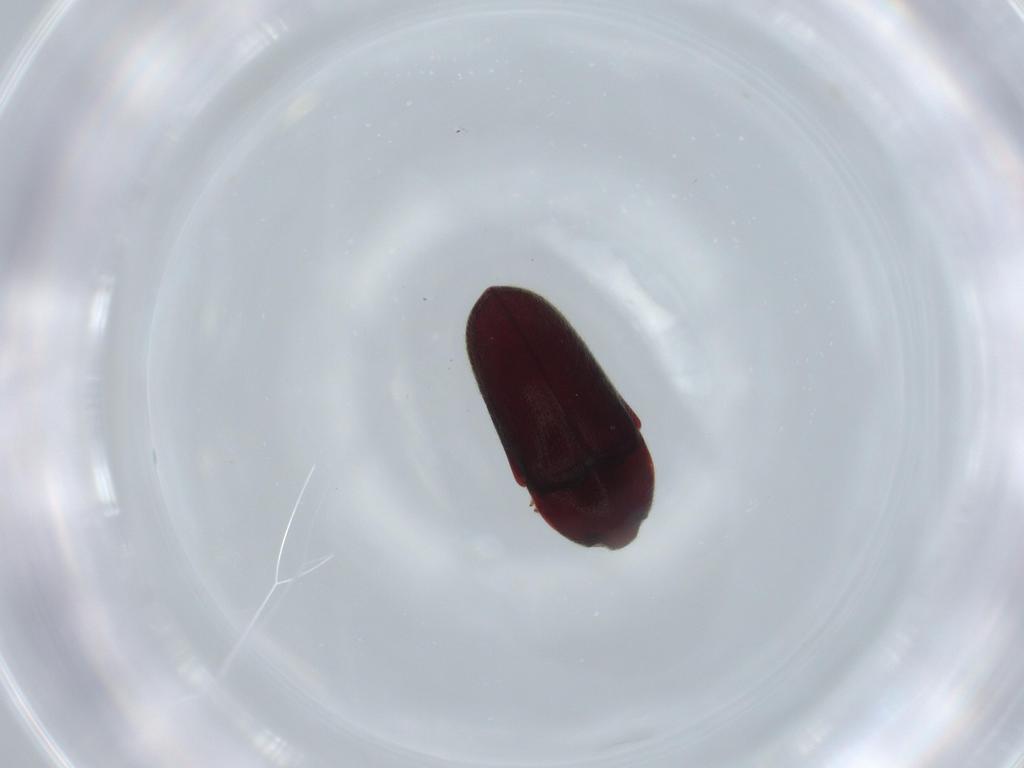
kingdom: Animalia
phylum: Arthropoda
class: Insecta
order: Coleoptera
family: Throscidae
